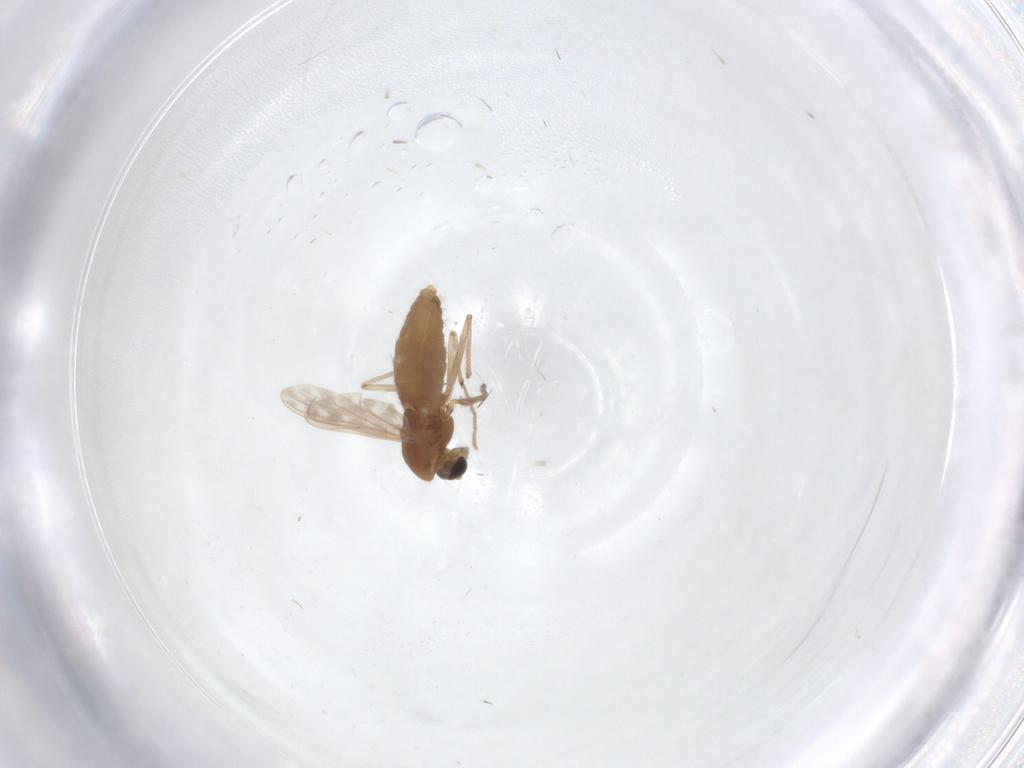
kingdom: Animalia
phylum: Arthropoda
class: Insecta
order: Diptera
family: Chironomidae
